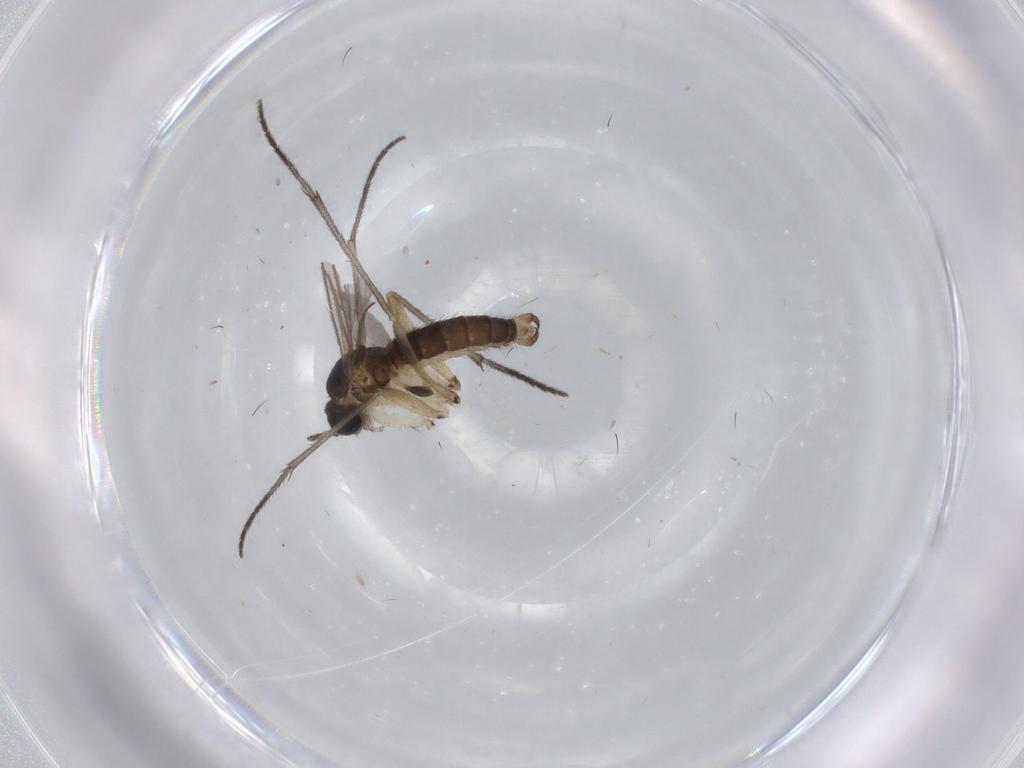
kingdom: Animalia
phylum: Arthropoda
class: Insecta
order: Diptera
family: Sciaridae
